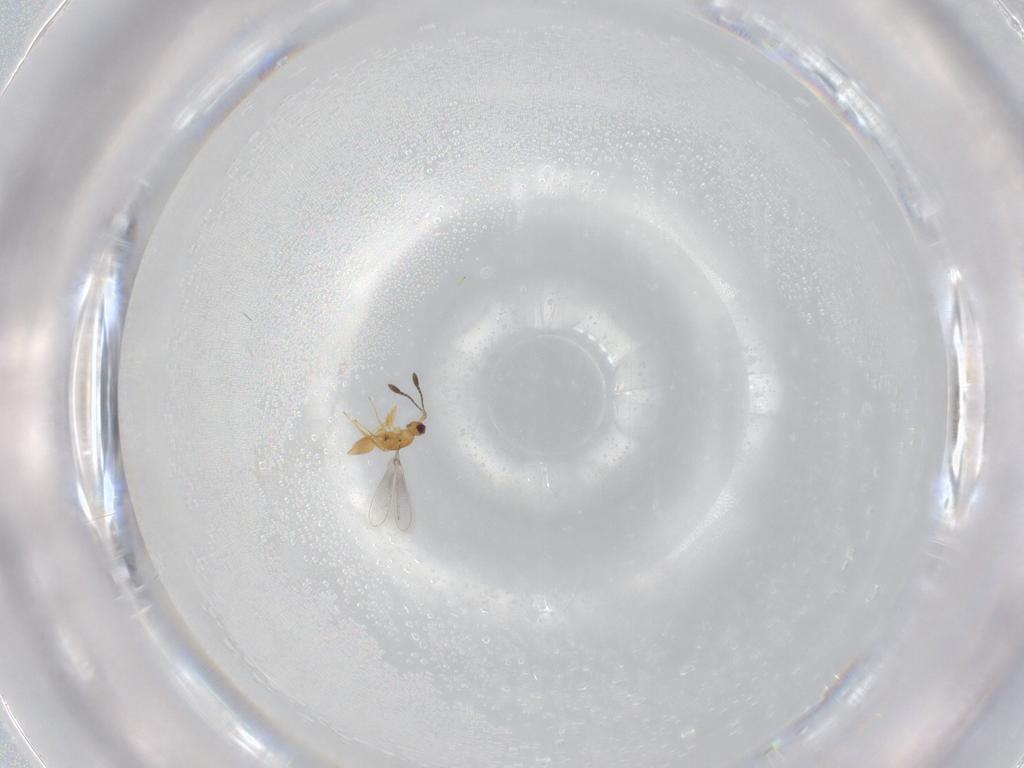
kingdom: Animalia
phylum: Arthropoda
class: Insecta
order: Hymenoptera
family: Mymaridae
